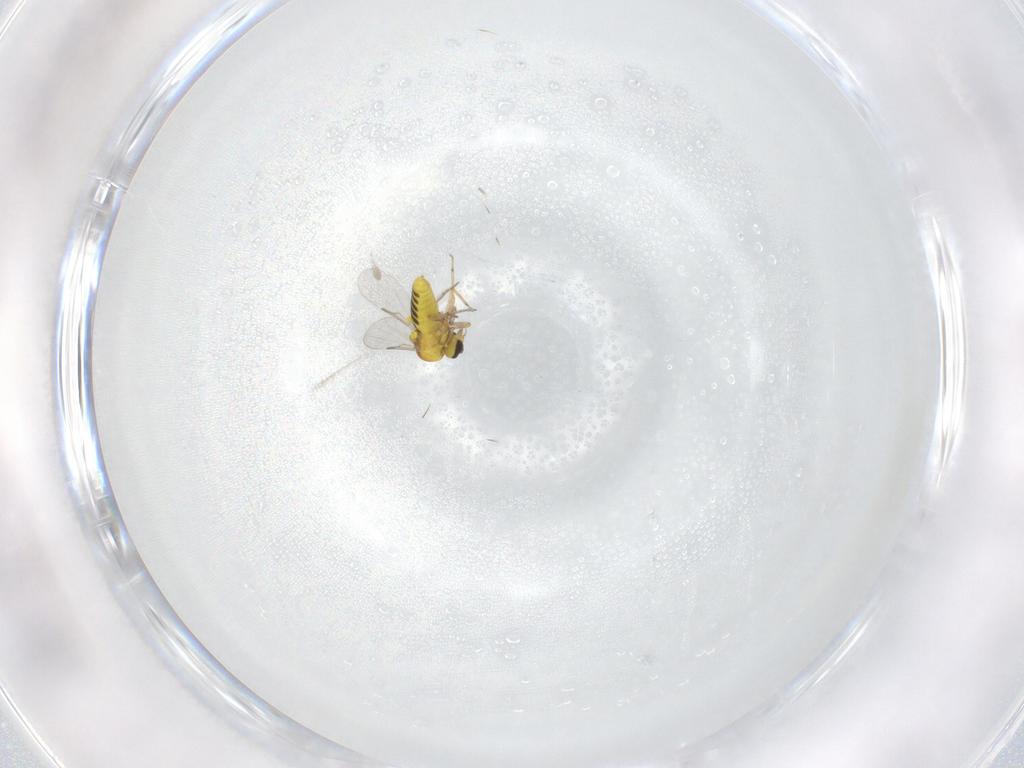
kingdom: Animalia
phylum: Arthropoda
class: Insecta
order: Diptera
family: Ceratopogonidae
